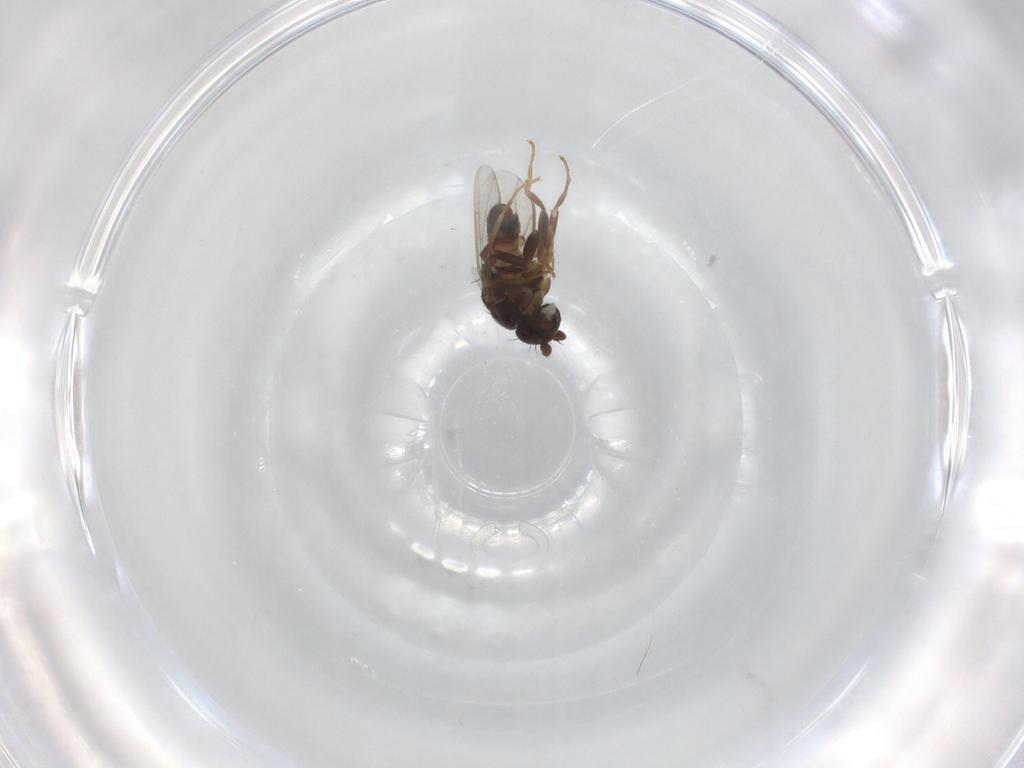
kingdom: Animalia
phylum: Arthropoda
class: Insecta
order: Diptera
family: Sphaeroceridae
